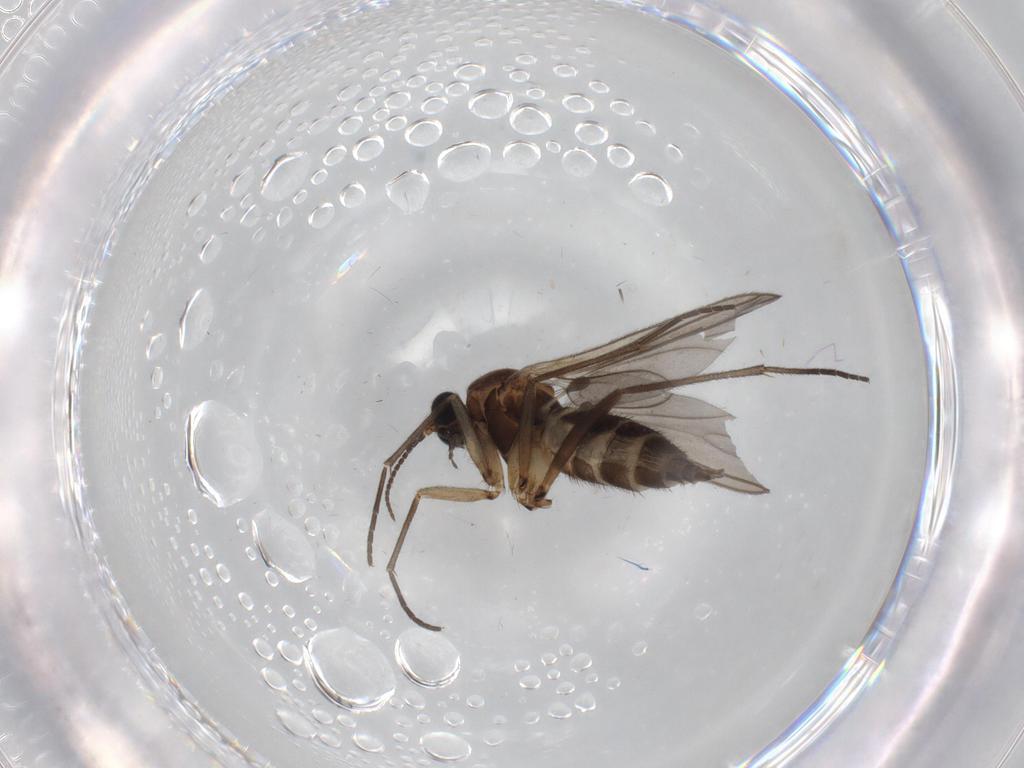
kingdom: Animalia
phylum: Arthropoda
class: Insecta
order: Diptera
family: Sciaridae
